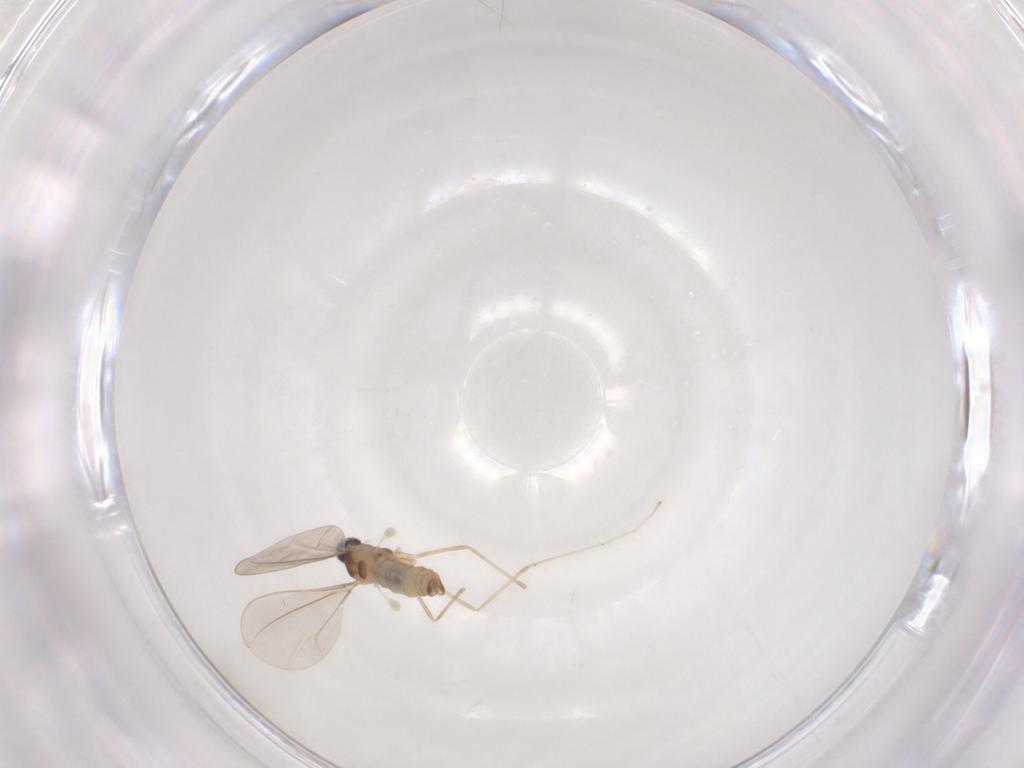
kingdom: Animalia
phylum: Arthropoda
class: Insecta
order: Diptera
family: Cecidomyiidae
